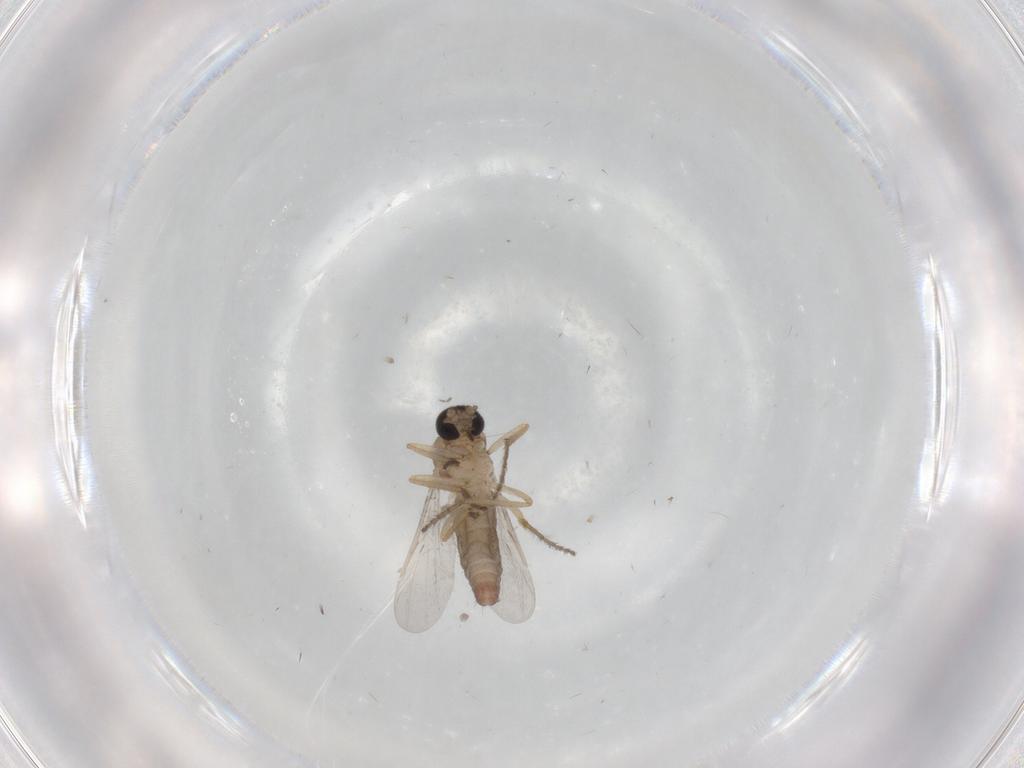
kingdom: Animalia
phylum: Arthropoda
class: Insecta
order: Diptera
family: Ceratopogonidae
